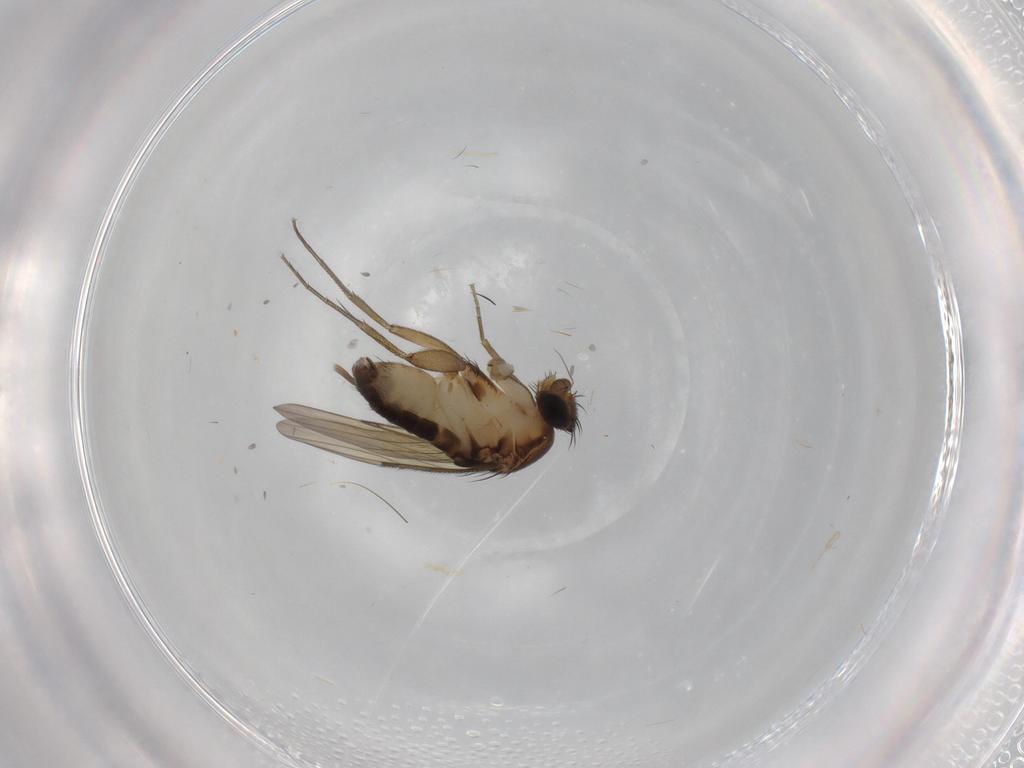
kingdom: Animalia
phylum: Arthropoda
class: Insecta
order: Diptera
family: Phoridae
